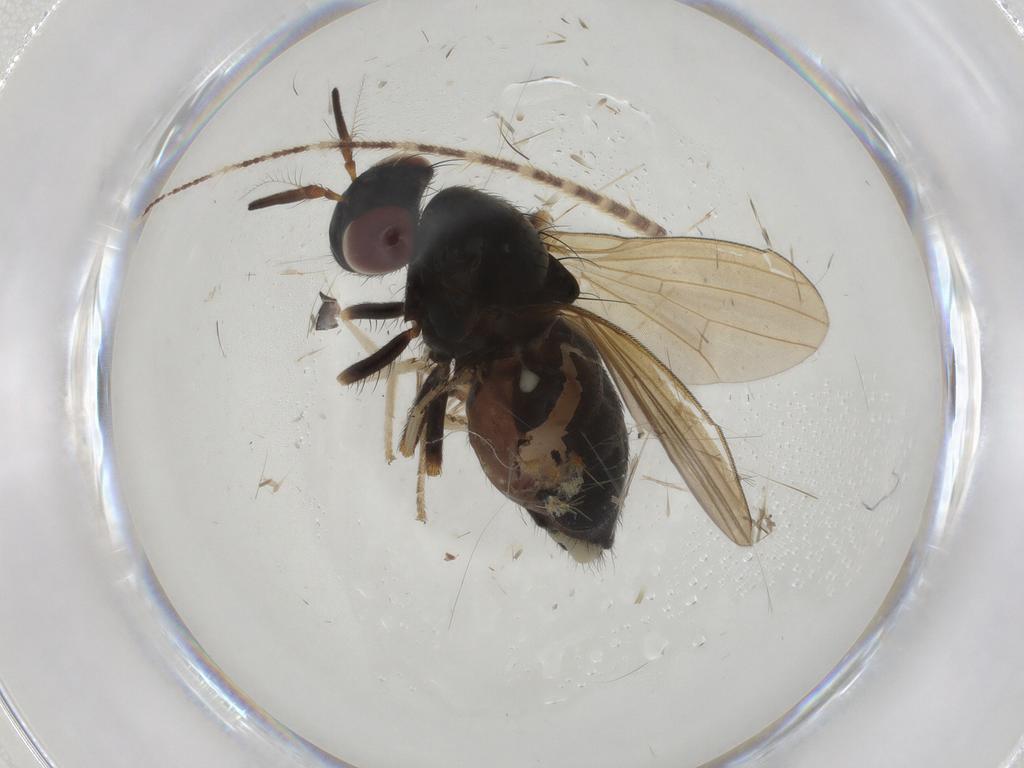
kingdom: Animalia
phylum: Arthropoda
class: Insecta
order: Diptera
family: Lauxaniidae
